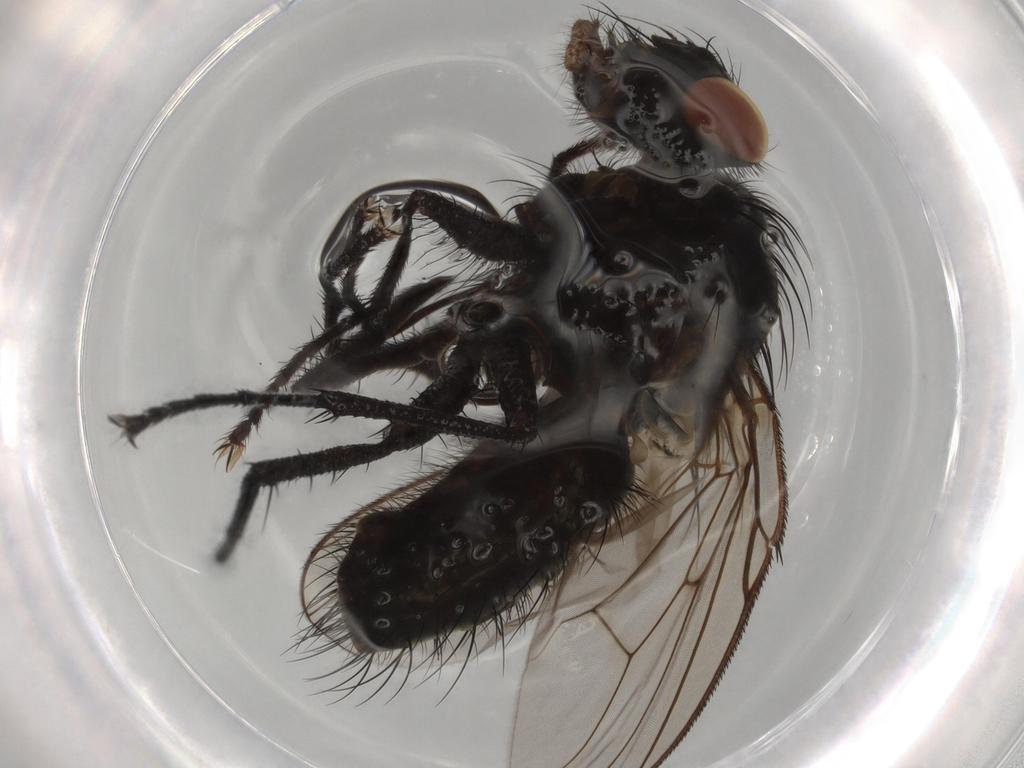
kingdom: Animalia
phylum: Arthropoda
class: Insecta
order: Diptera
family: Muscidae
